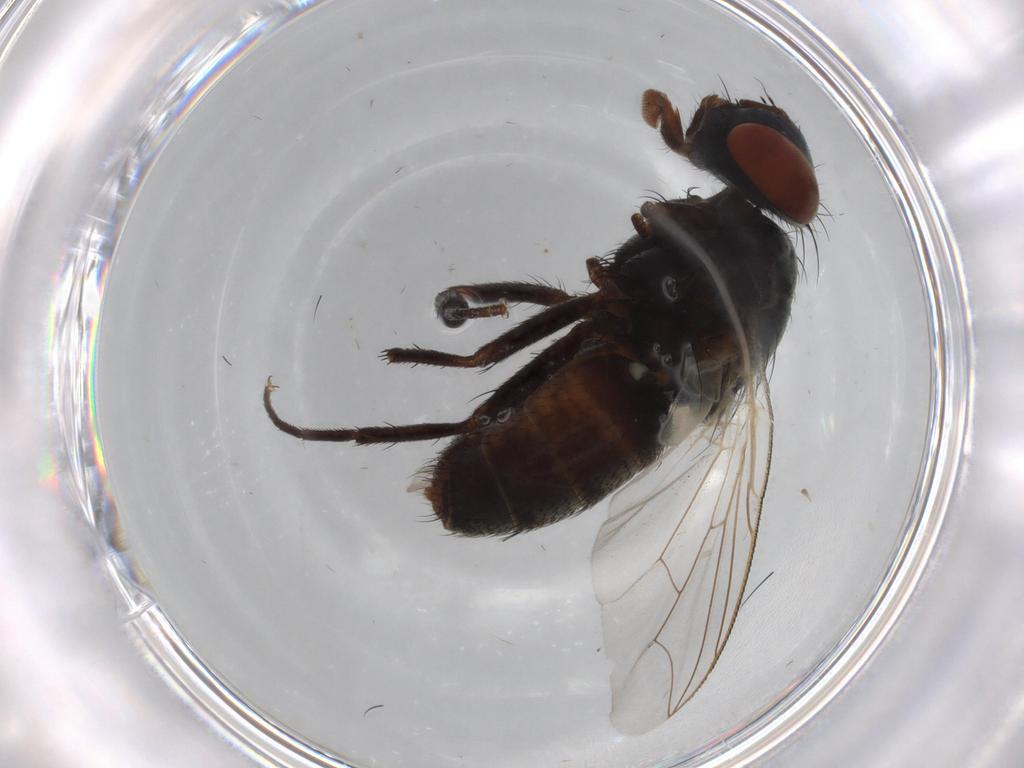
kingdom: Animalia
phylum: Arthropoda
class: Insecta
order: Diptera
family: Sarcophagidae
